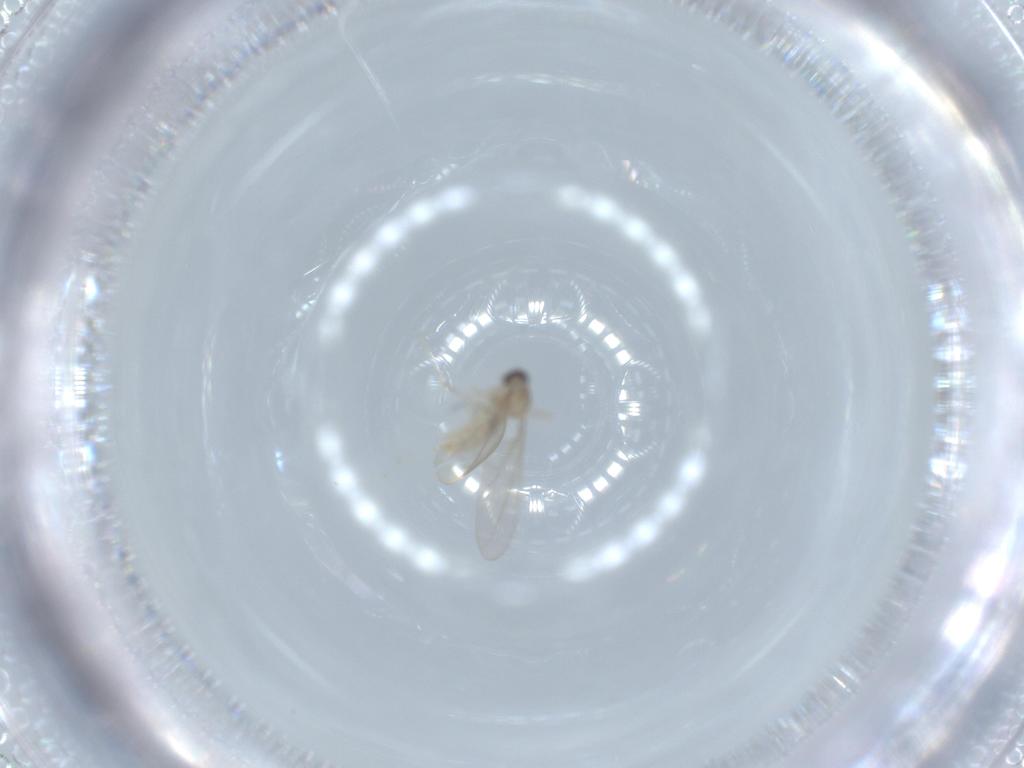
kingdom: Animalia
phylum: Arthropoda
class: Insecta
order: Diptera
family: Cecidomyiidae
